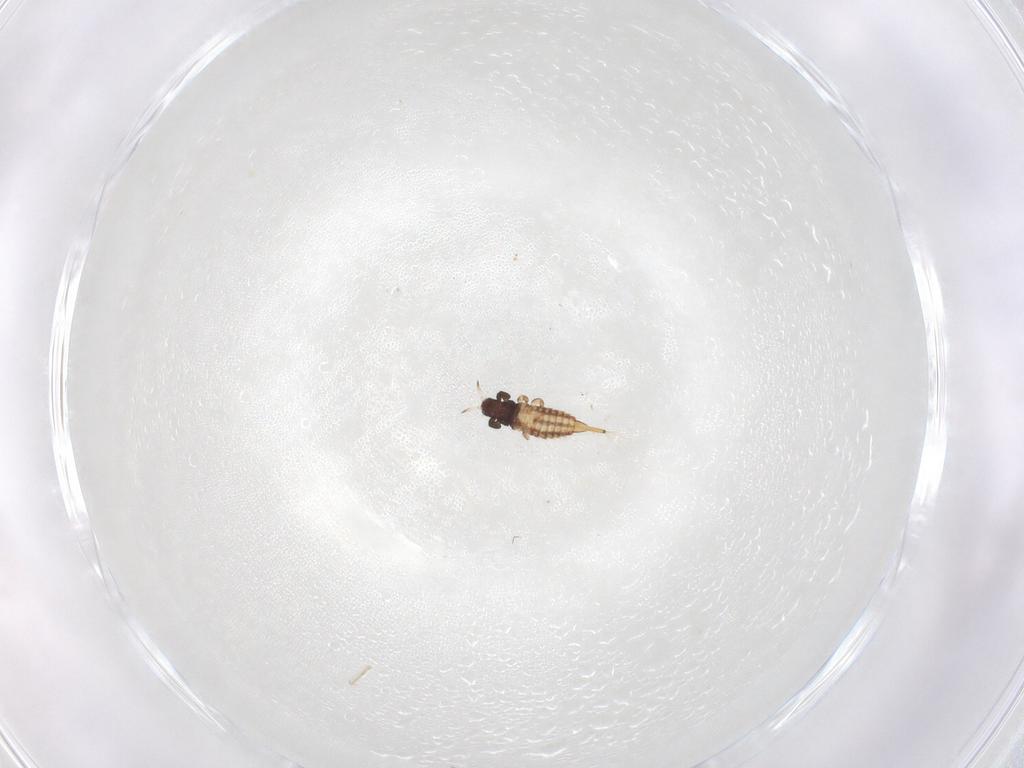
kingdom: Animalia
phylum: Arthropoda
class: Insecta
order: Thysanoptera
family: Phlaeothripidae
